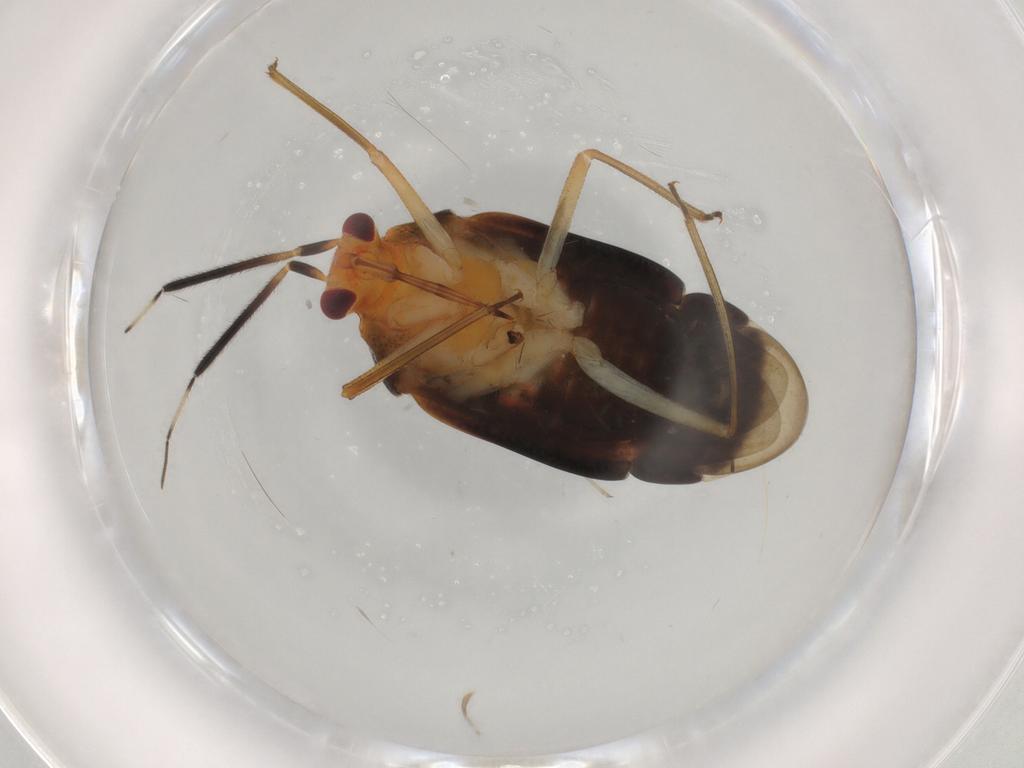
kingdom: Animalia
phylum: Arthropoda
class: Insecta
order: Hemiptera
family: Miridae
